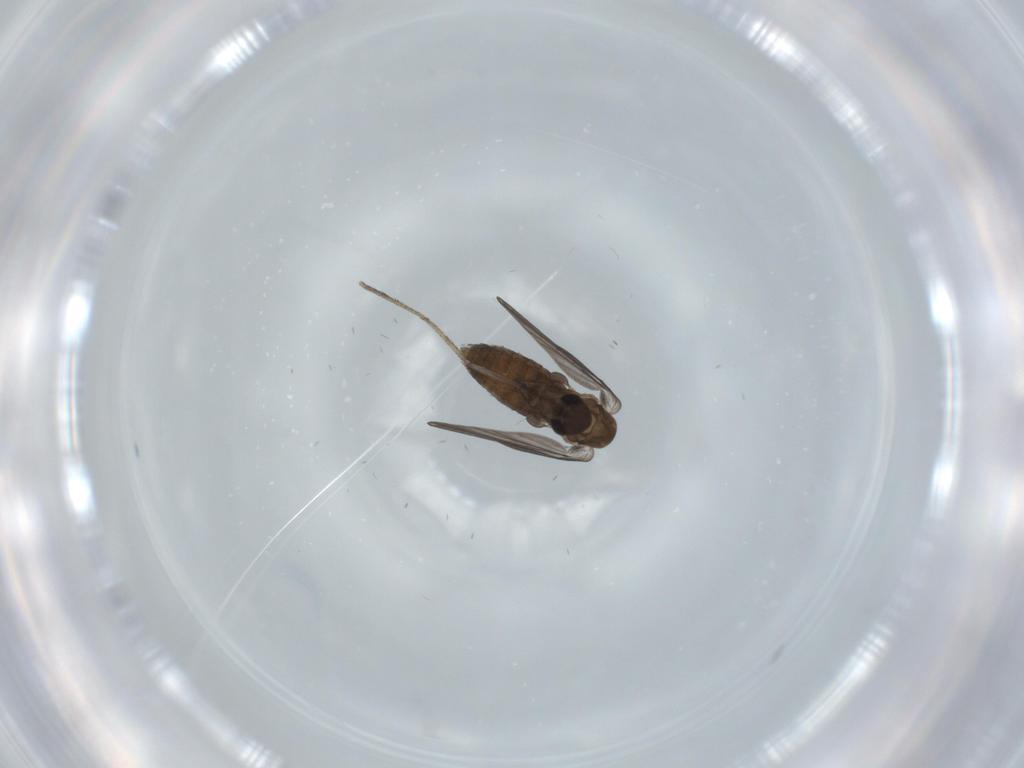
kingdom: Animalia
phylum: Arthropoda
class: Insecta
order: Diptera
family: Psychodidae
